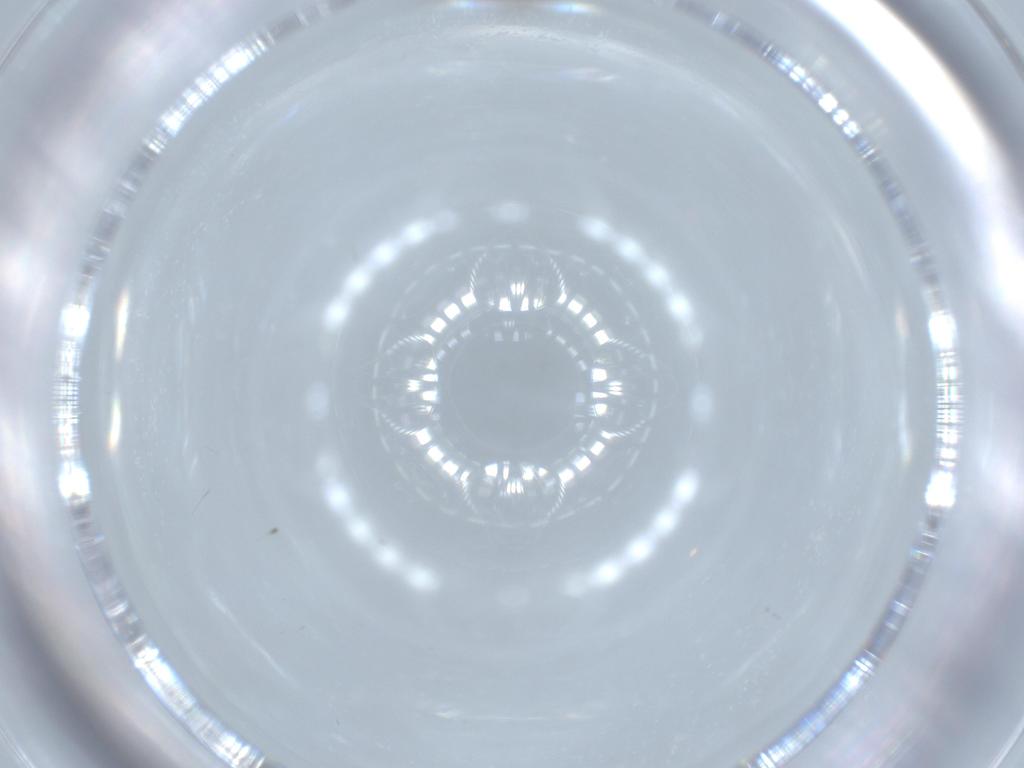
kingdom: Animalia
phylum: Arthropoda
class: Insecta
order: Diptera
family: Cecidomyiidae
